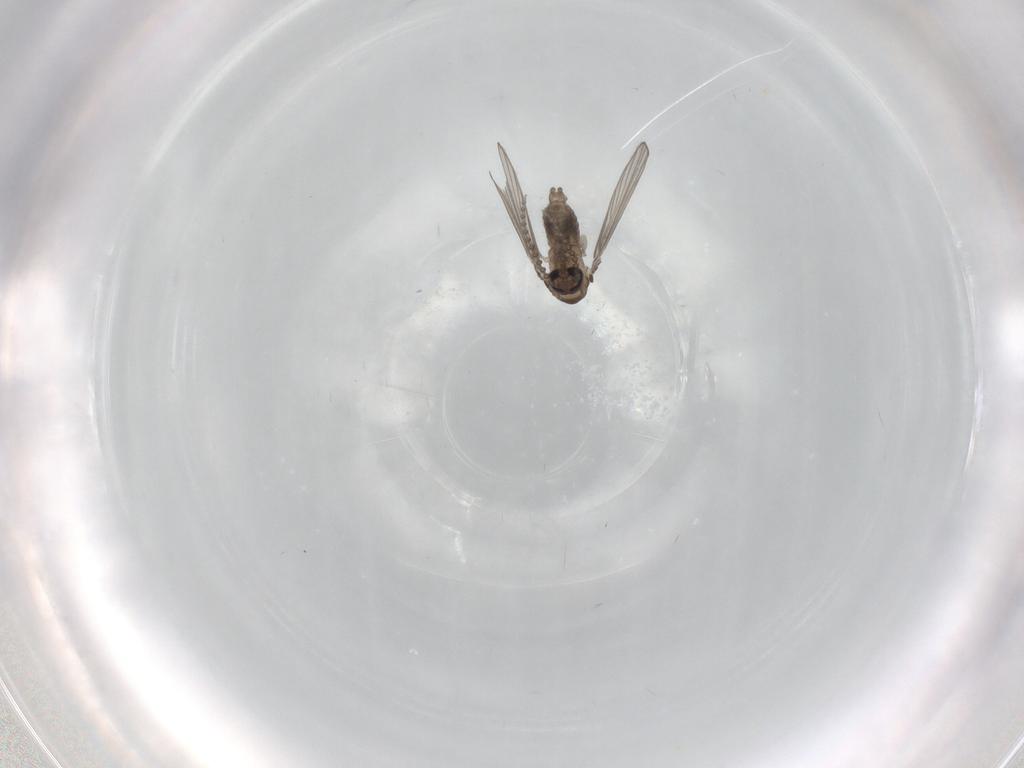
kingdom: Animalia
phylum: Arthropoda
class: Insecta
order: Diptera
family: Psychodidae
